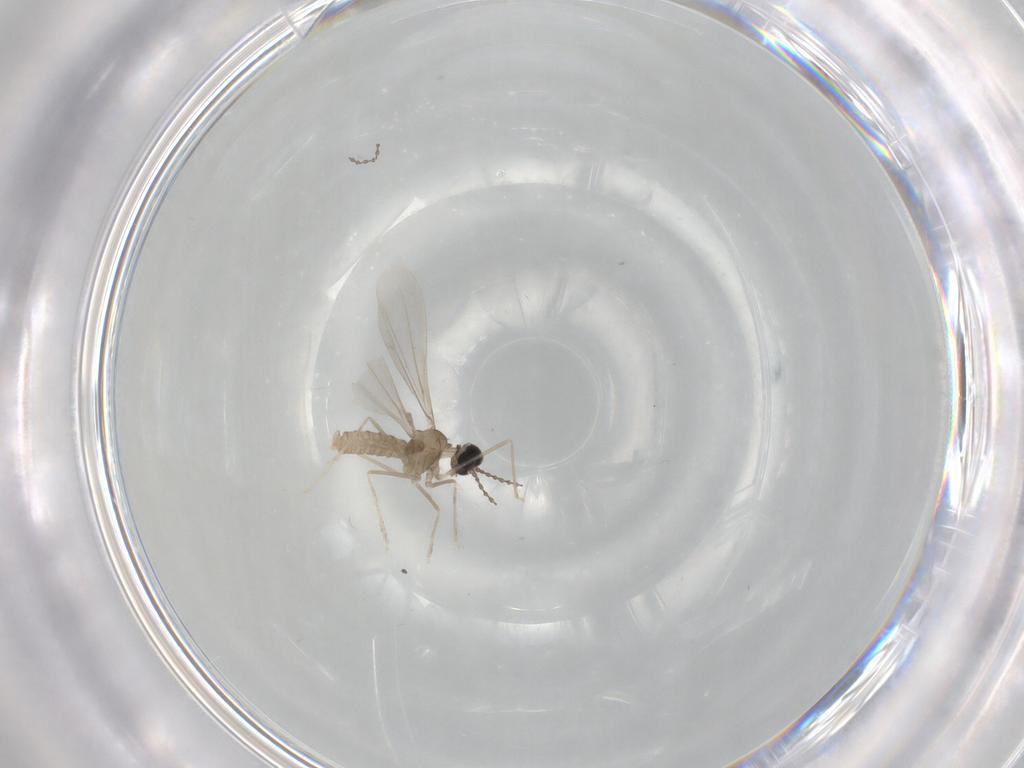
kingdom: Animalia
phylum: Arthropoda
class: Insecta
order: Diptera
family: Cecidomyiidae
